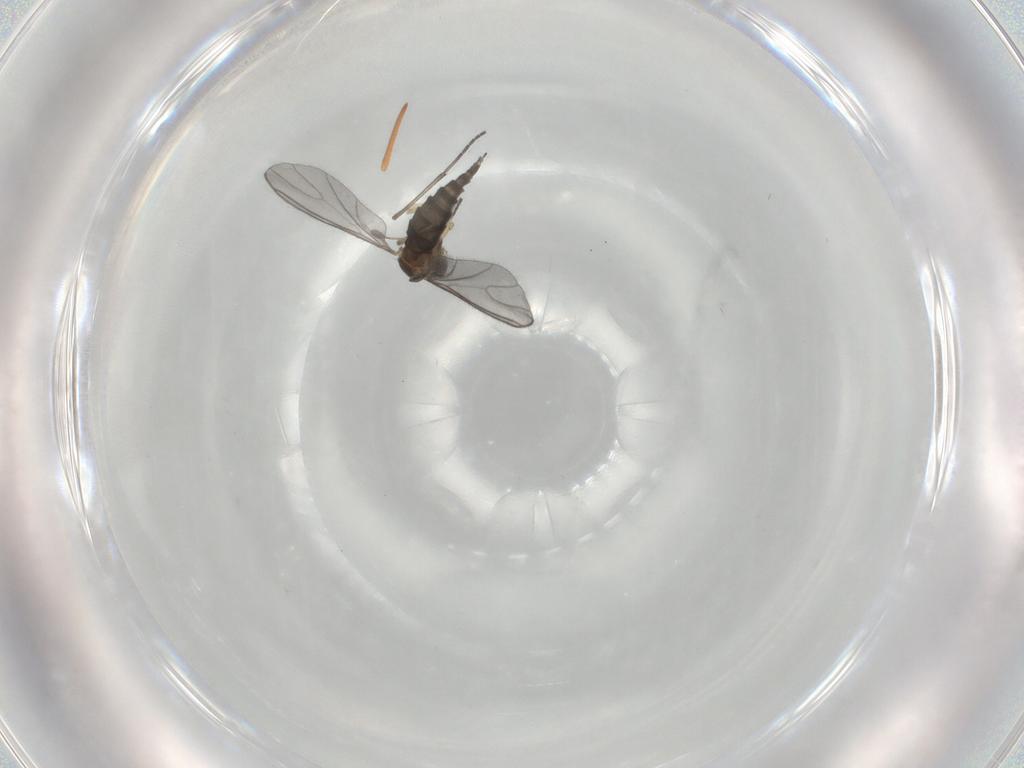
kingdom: Animalia
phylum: Arthropoda
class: Insecta
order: Diptera
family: Sciaridae
